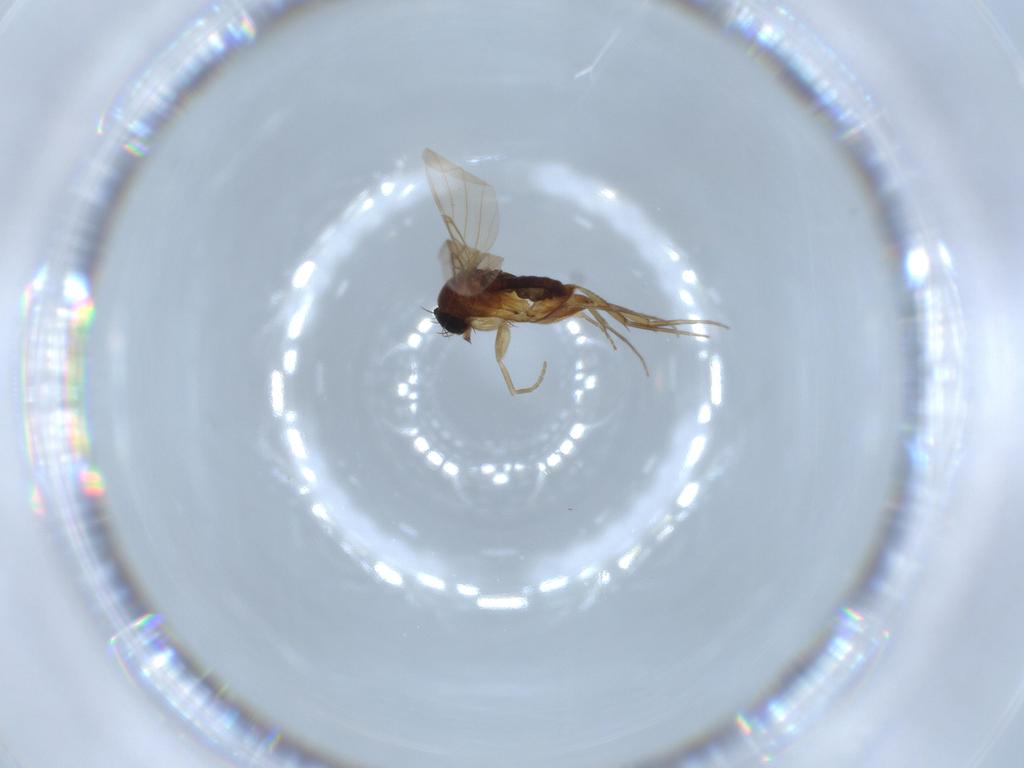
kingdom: Animalia
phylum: Arthropoda
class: Insecta
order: Diptera
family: Phoridae
